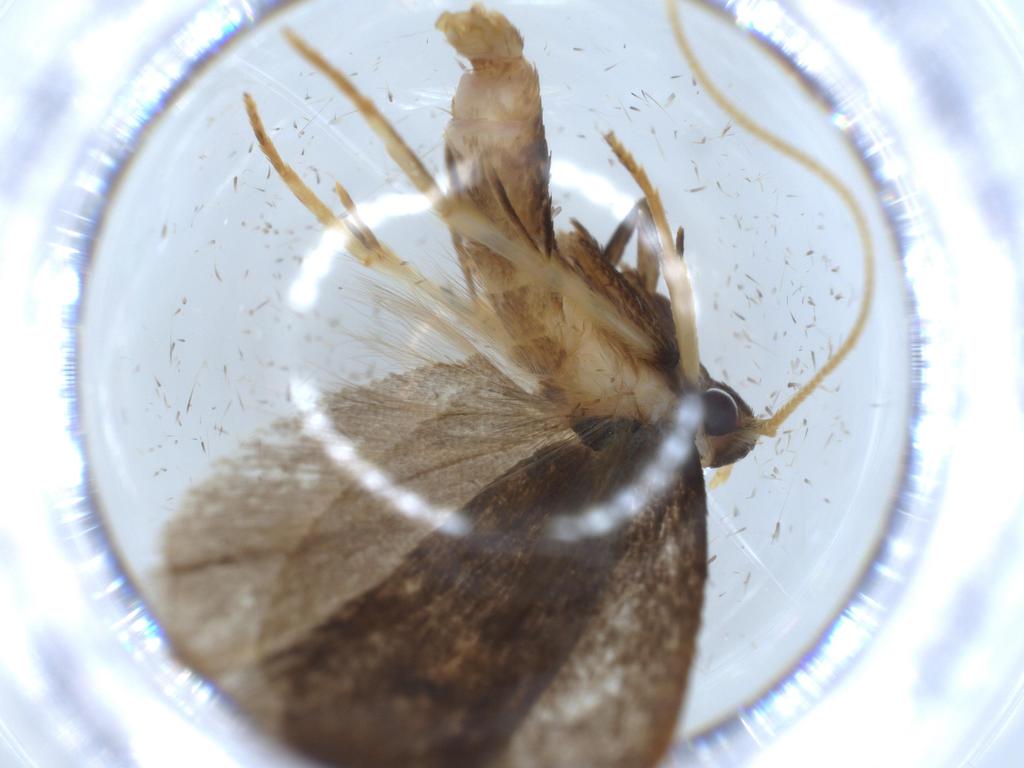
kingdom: Animalia
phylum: Arthropoda
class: Insecta
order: Lepidoptera
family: Lecithoceridae
